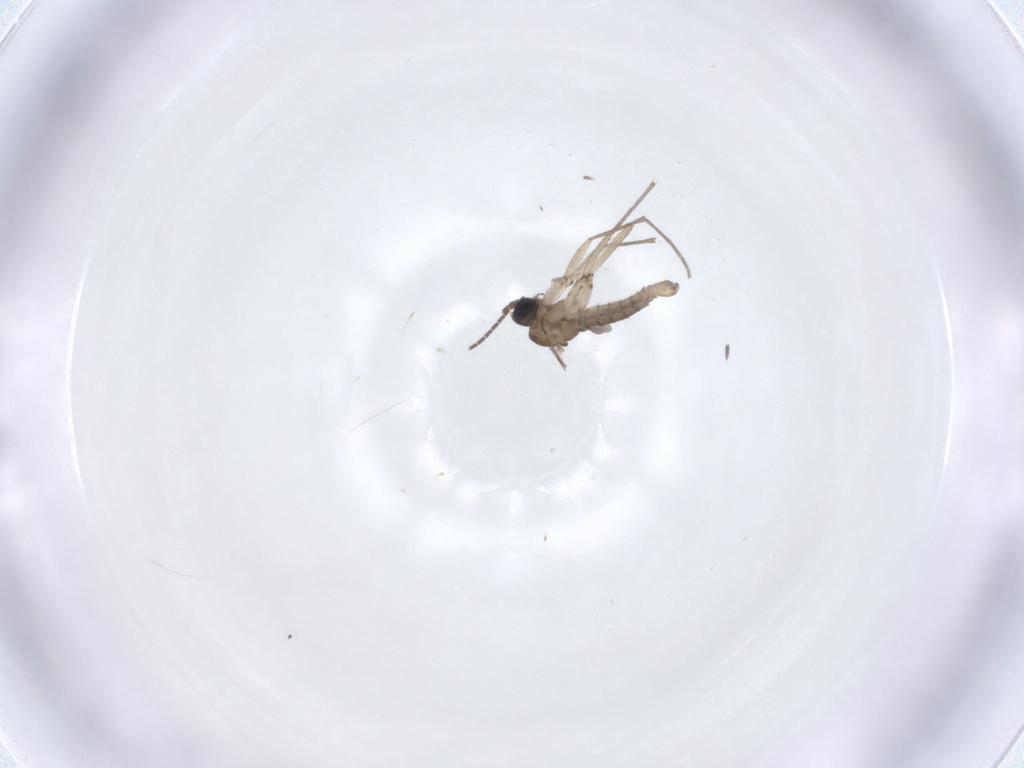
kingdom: Animalia
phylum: Arthropoda
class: Insecta
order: Diptera
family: Sciaridae
